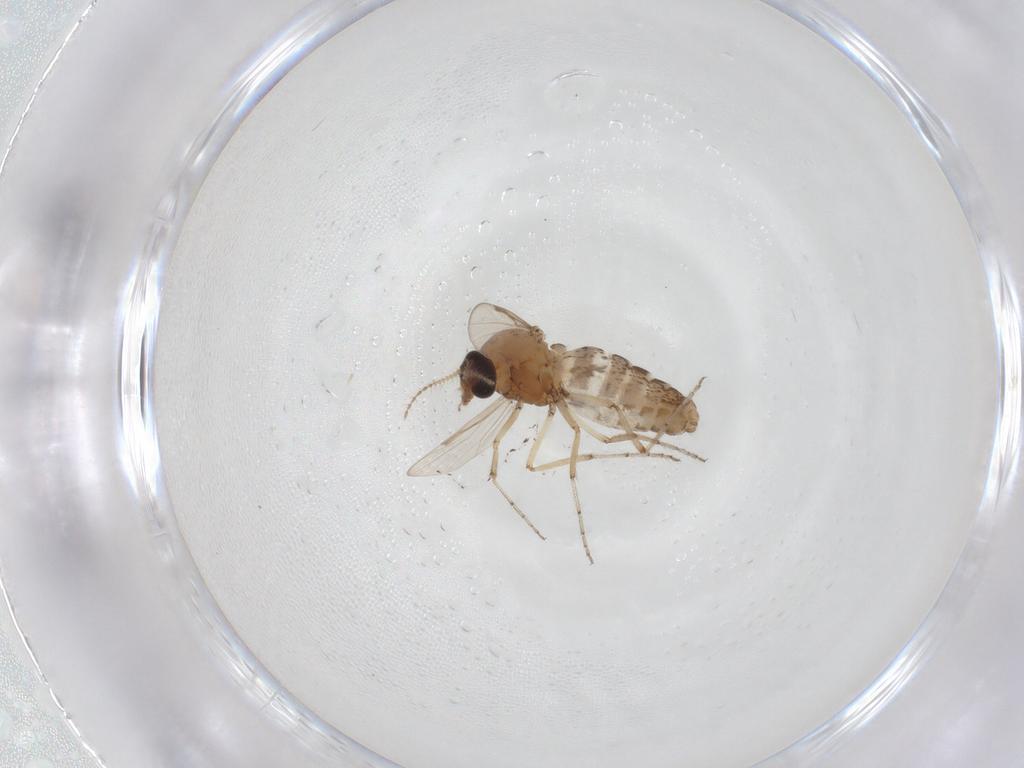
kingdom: Animalia
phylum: Arthropoda
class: Insecta
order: Diptera
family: Ceratopogonidae
